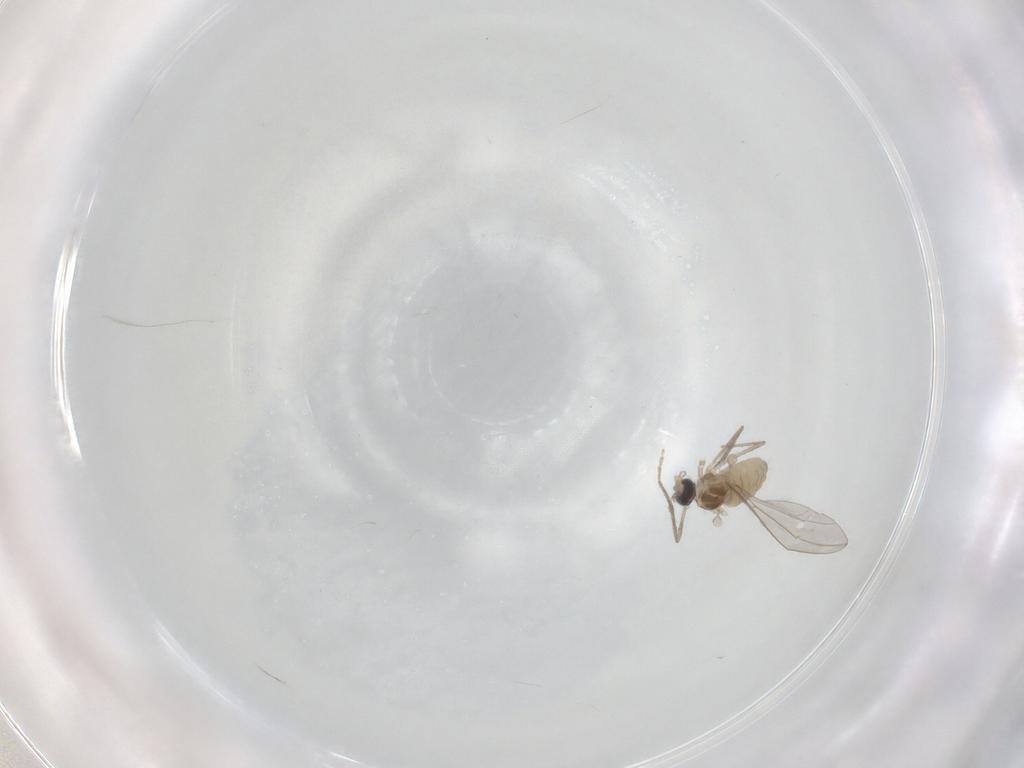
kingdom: Animalia
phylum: Arthropoda
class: Insecta
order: Diptera
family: Cecidomyiidae
